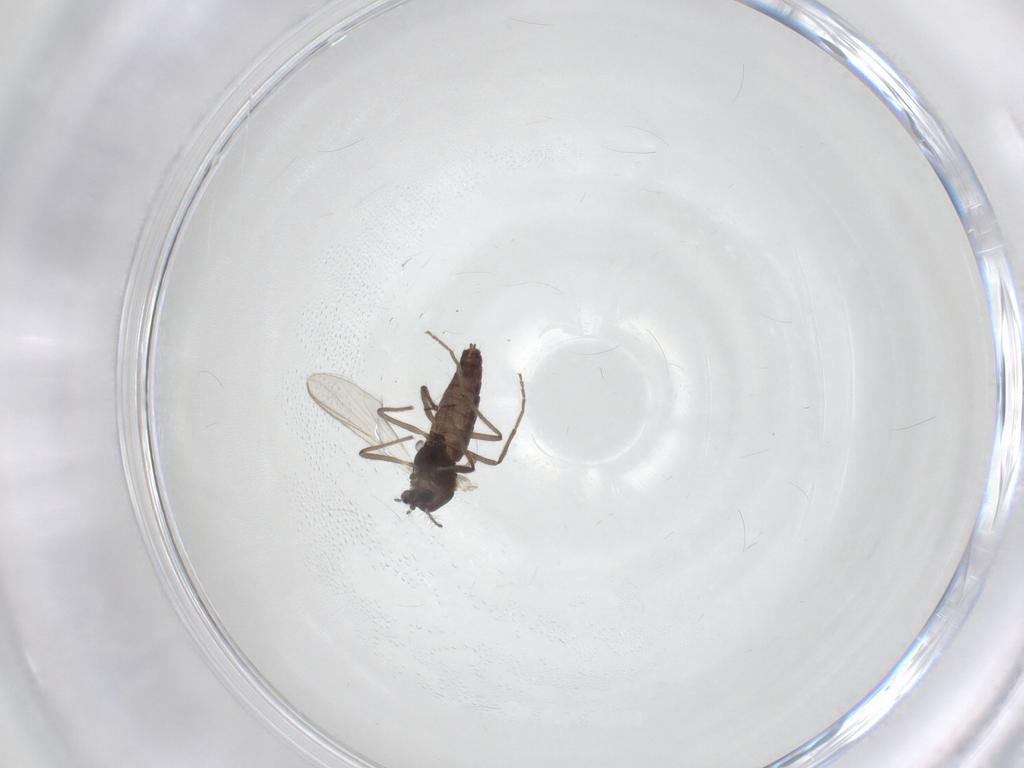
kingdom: Animalia
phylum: Arthropoda
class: Insecta
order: Diptera
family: Chironomidae
